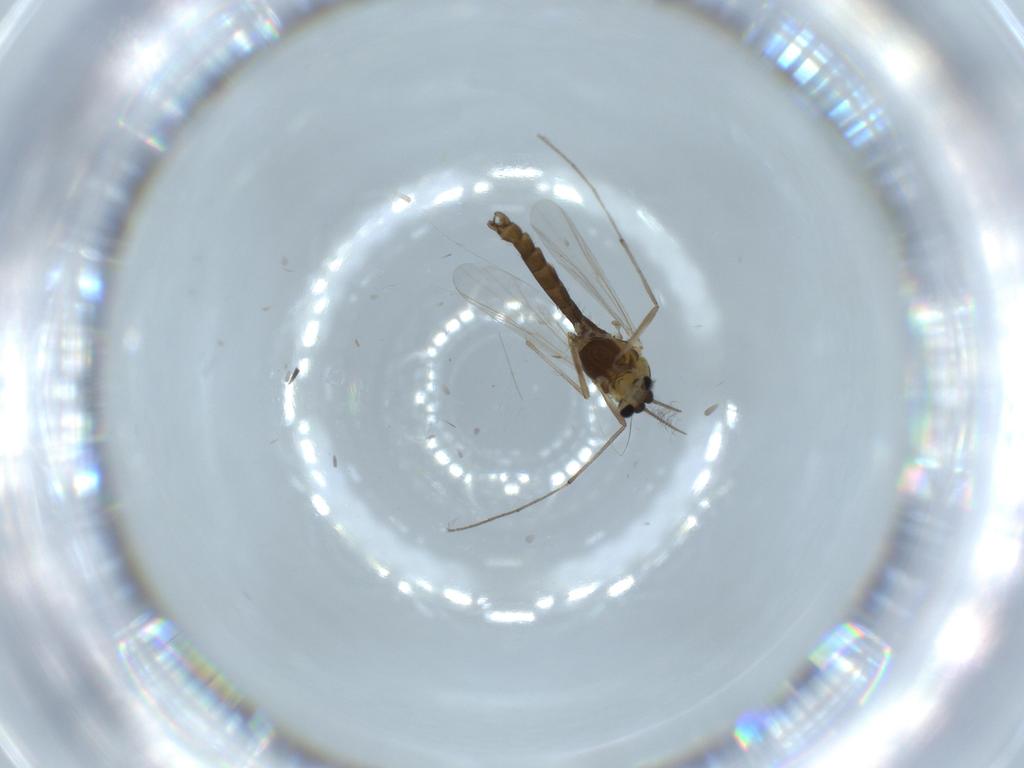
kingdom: Animalia
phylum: Arthropoda
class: Insecta
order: Diptera
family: Chironomidae
